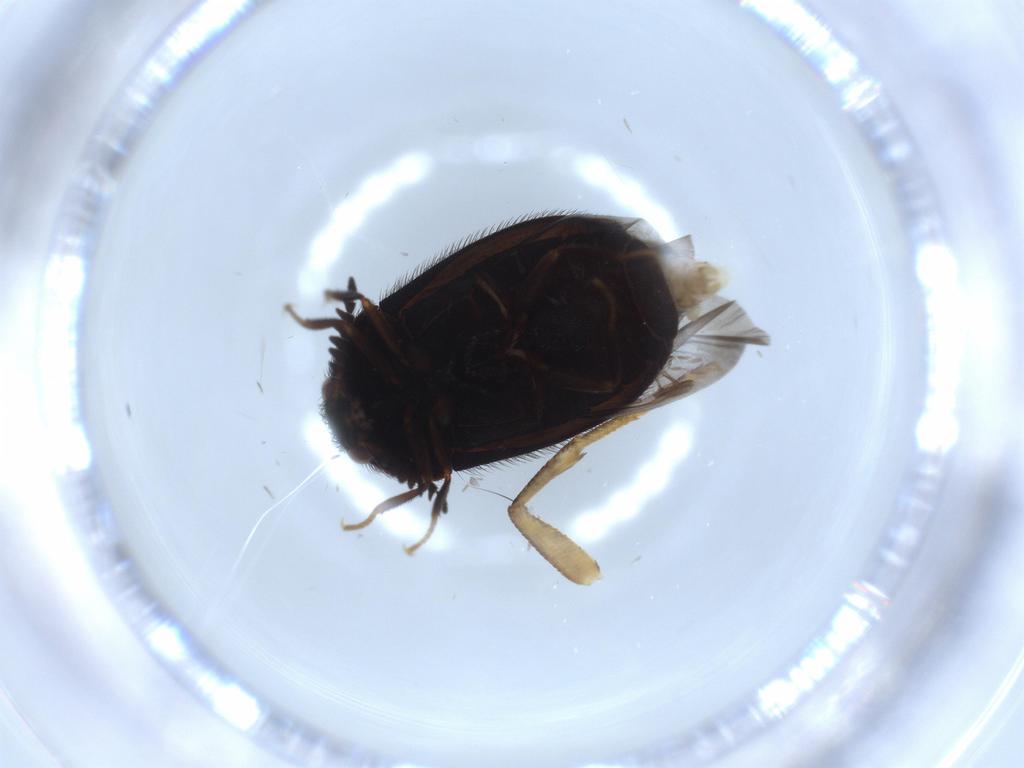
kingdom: Animalia
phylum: Arthropoda
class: Insecta
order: Coleoptera
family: Dermestidae
